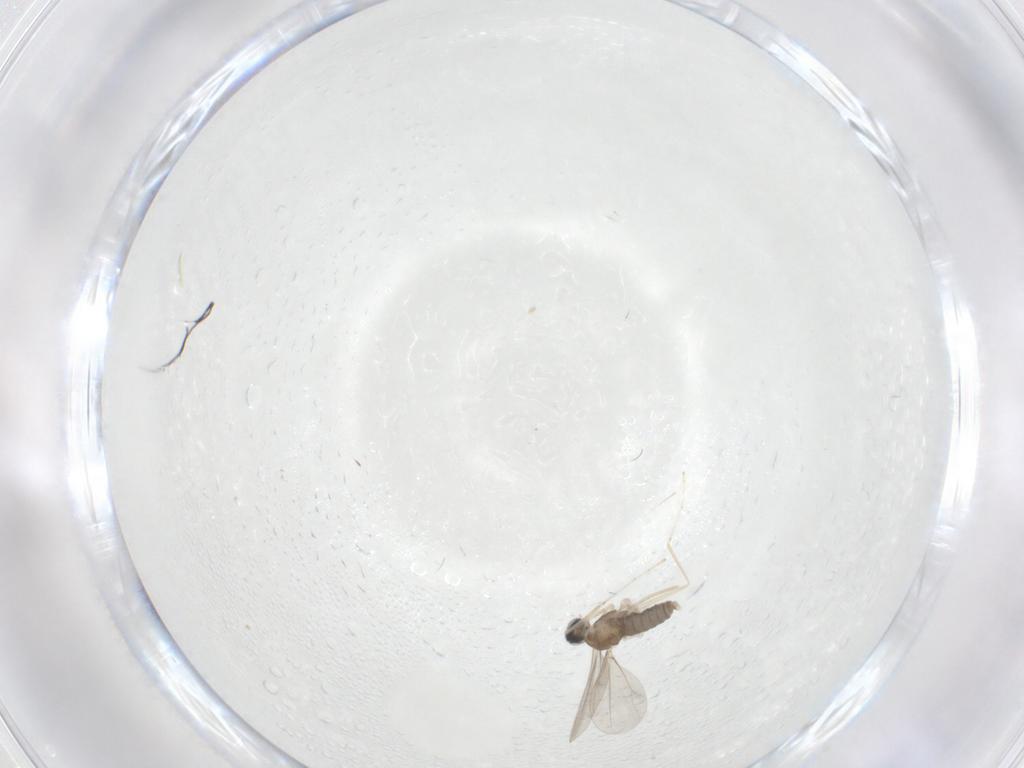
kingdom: Animalia
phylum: Arthropoda
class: Insecta
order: Diptera
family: Cecidomyiidae
